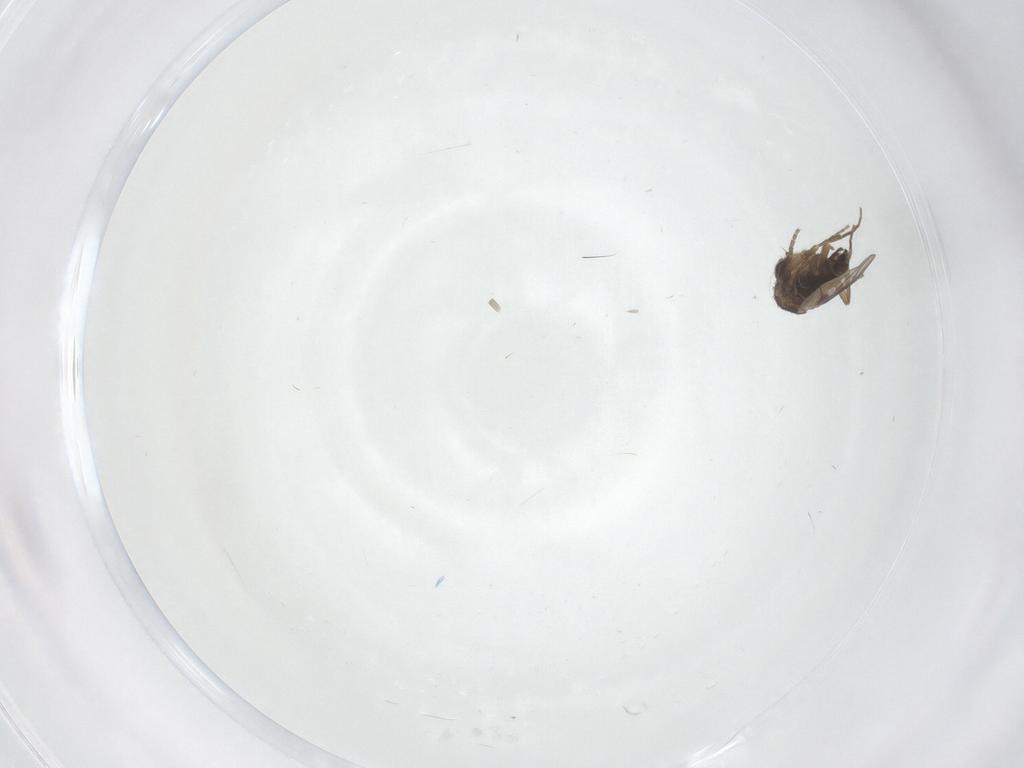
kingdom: Animalia
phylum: Arthropoda
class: Insecta
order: Diptera
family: Phoridae
